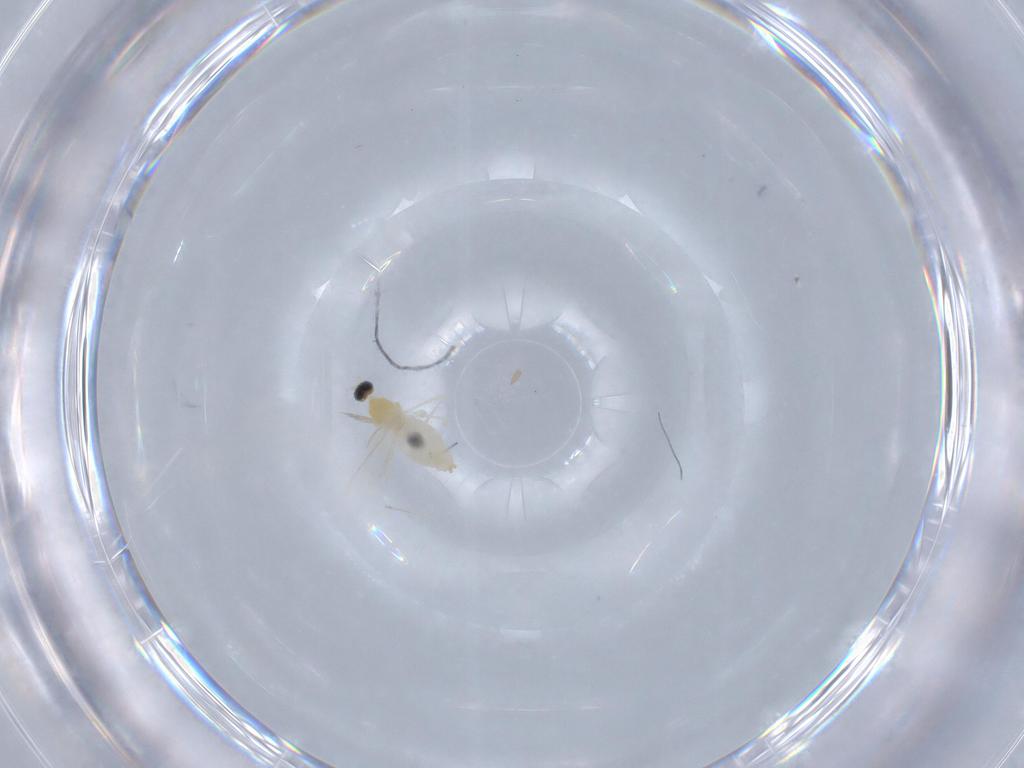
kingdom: Animalia
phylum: Arthropoda
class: Insecta
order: Diptera
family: Cecidomyiidae
